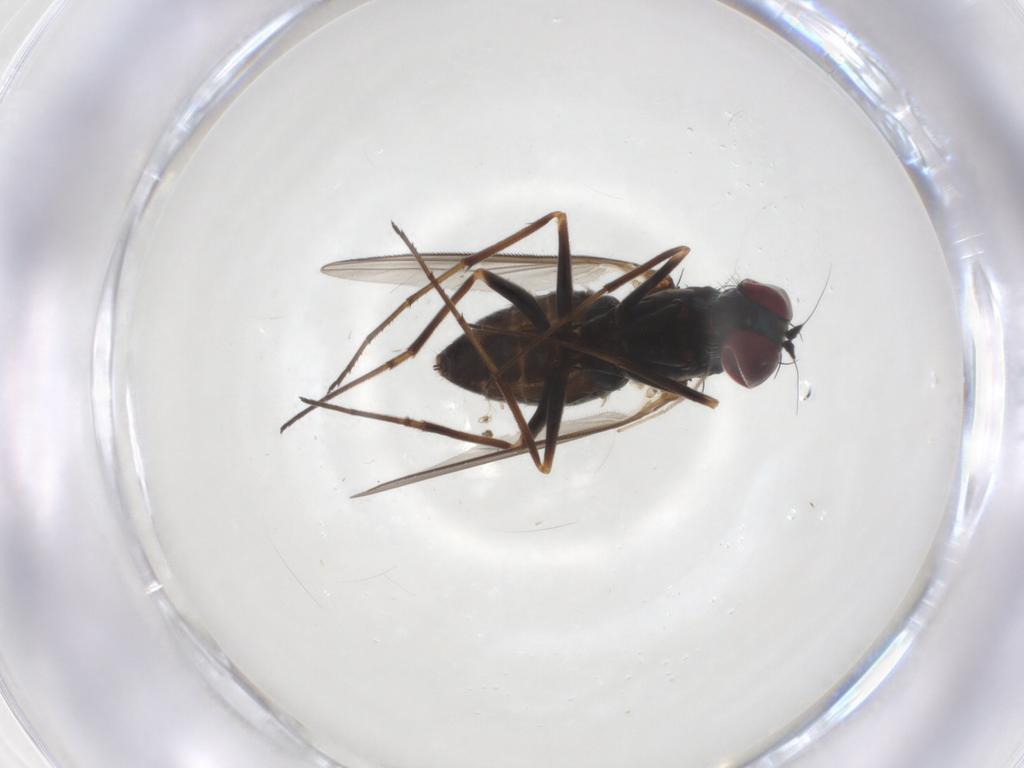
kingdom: Animalia
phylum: Arthropoda
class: Insecta
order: Diptera
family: Dolichopodidae
